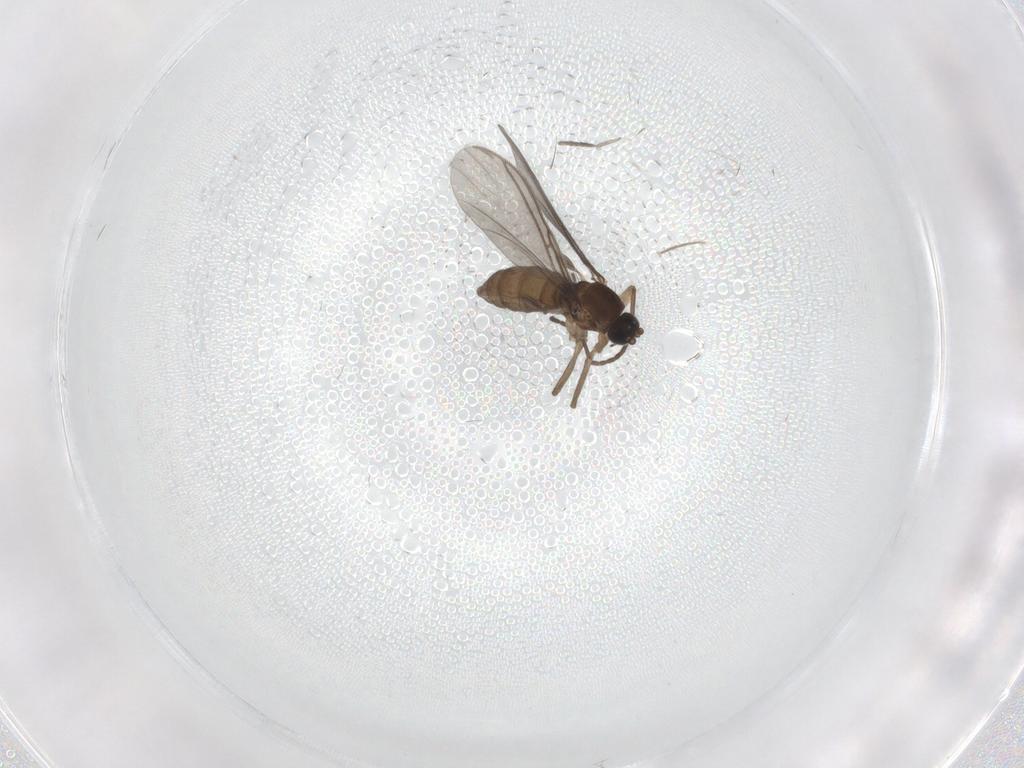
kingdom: Animalia
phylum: Arthropoda
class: Insecta
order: Diptera
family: Psychodidae
